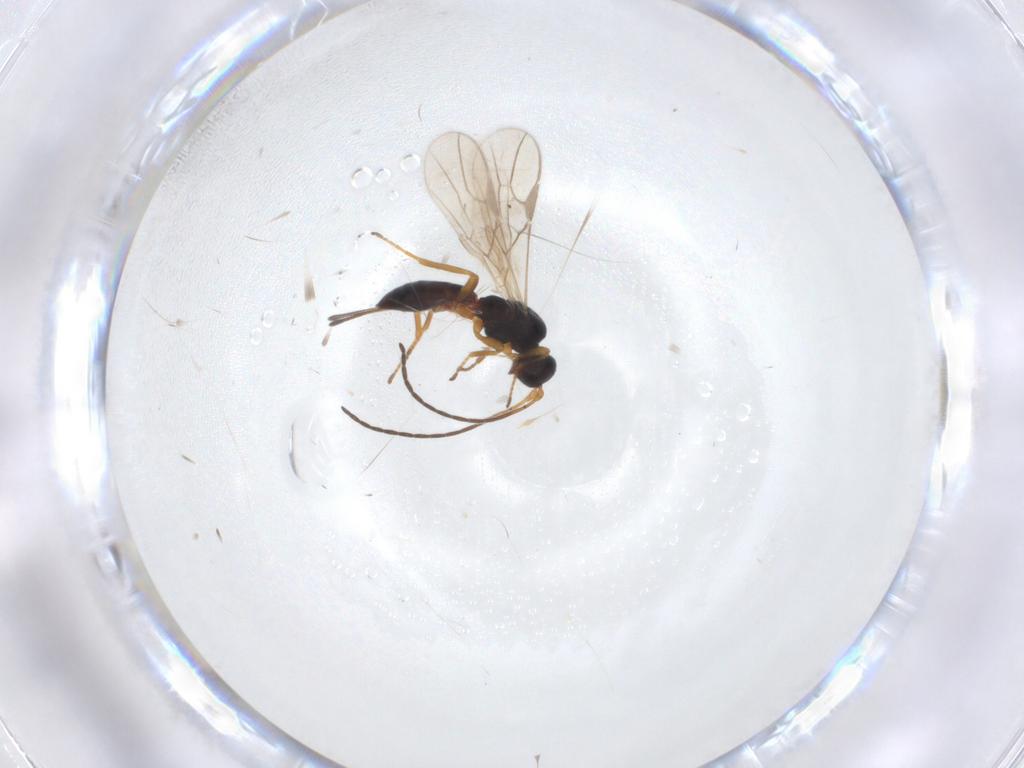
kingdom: Animalia
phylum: Arthropoda
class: Insecta
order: Hymenoptera
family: Braconidae
